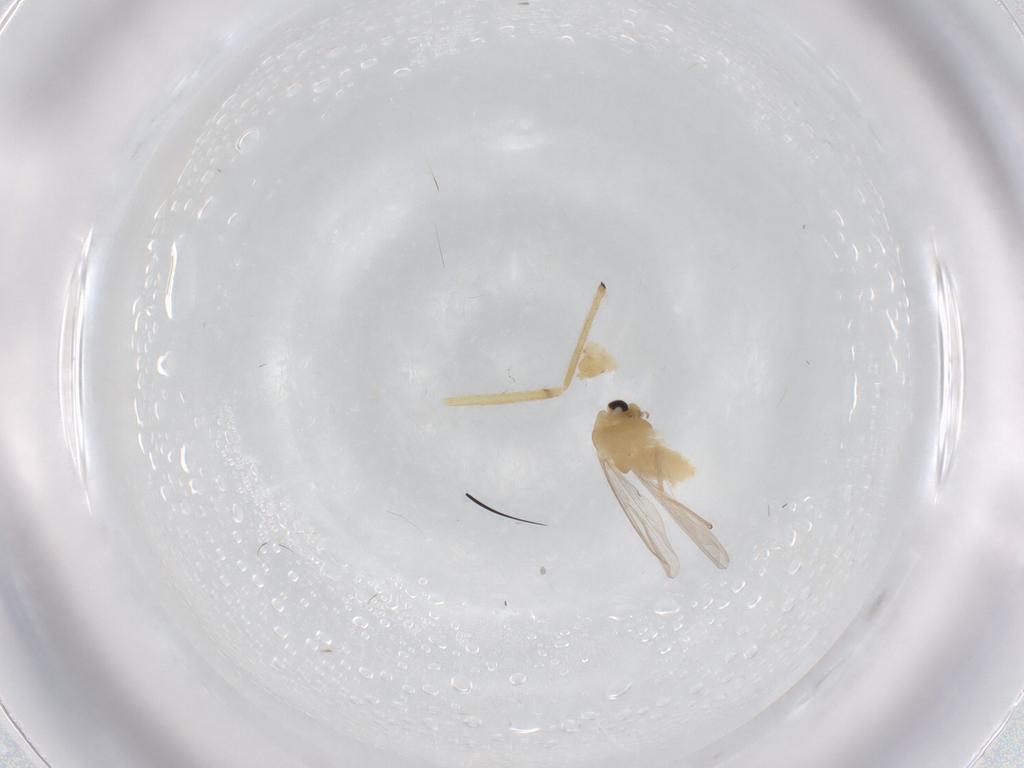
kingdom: Animalia
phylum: Arthropoda
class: Insecta
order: Diptera
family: Chironomidae
